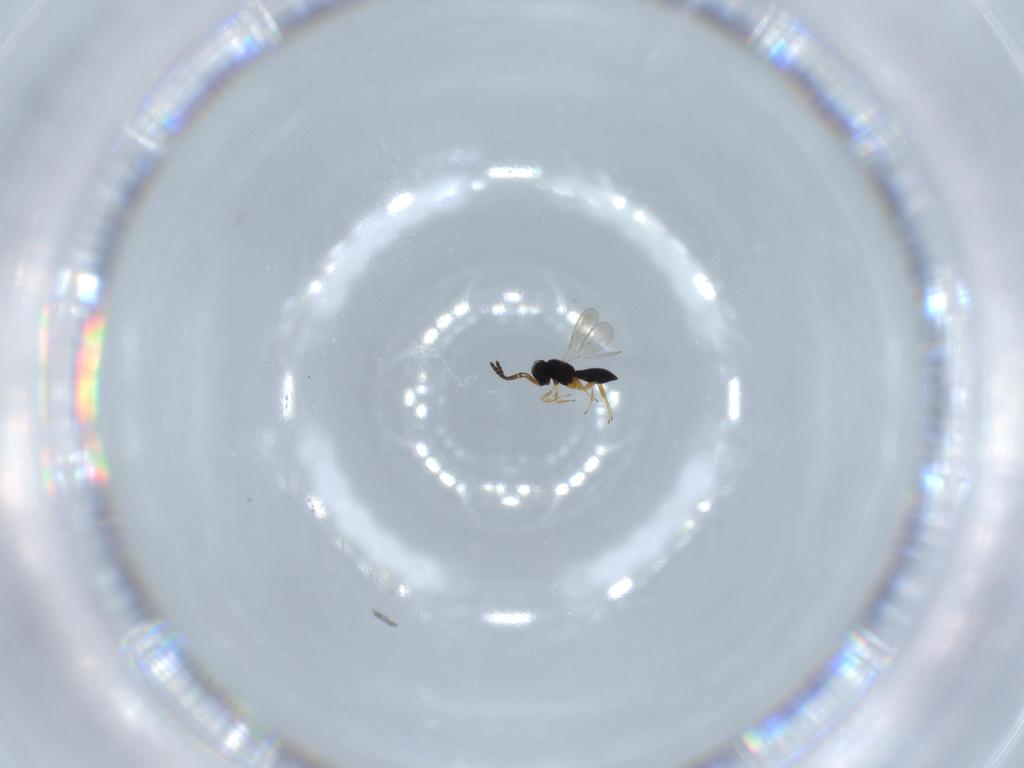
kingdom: Animalia
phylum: Arthropoda
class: Insecta
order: Hymenoptera
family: Scelionidae
